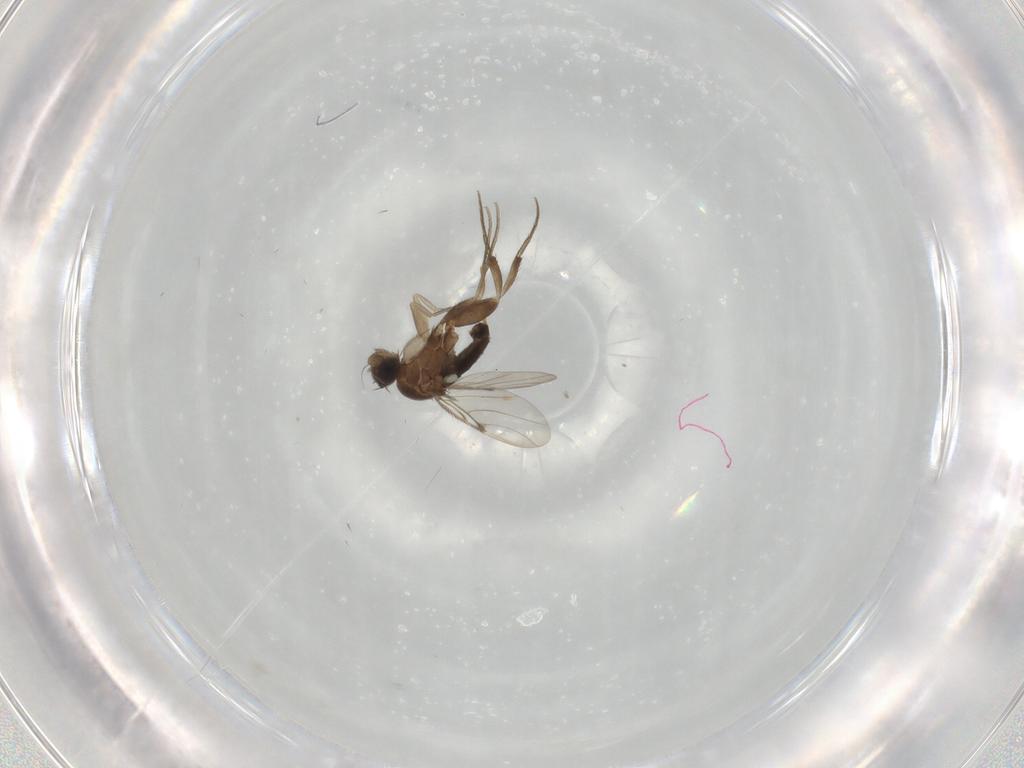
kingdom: Animalia
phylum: Arthropoda
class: Insecta
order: Diptera
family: Phoridae
